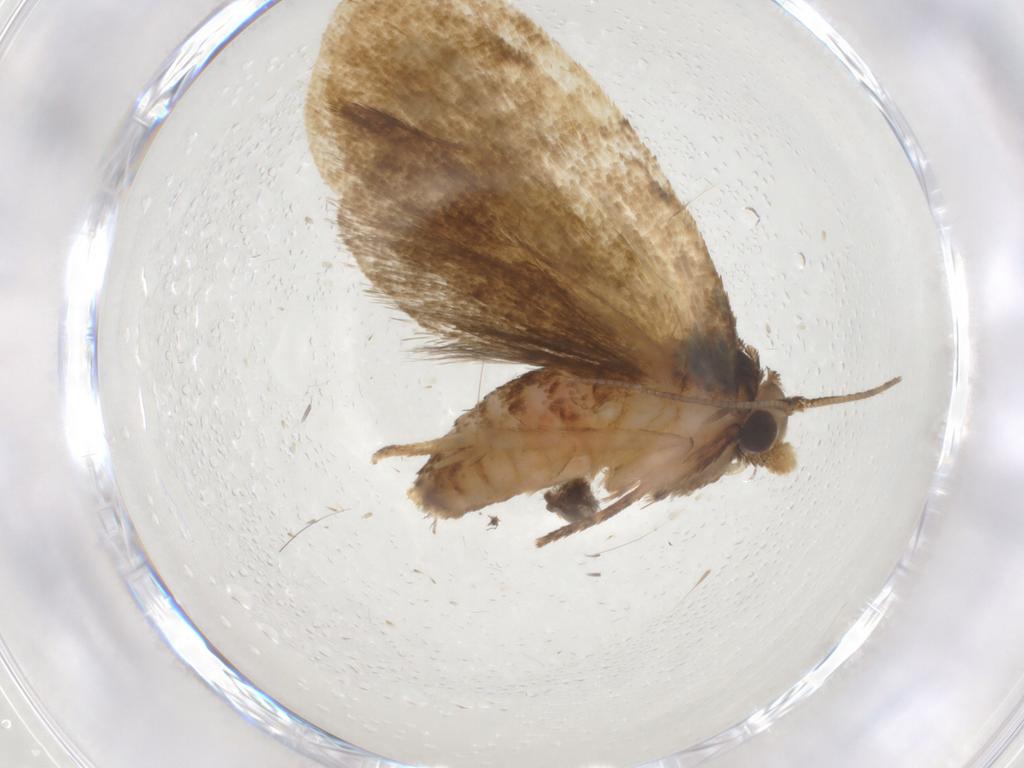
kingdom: Animalia
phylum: Arthropoda
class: Insecta
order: Lepidoptera
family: Tortricidae
